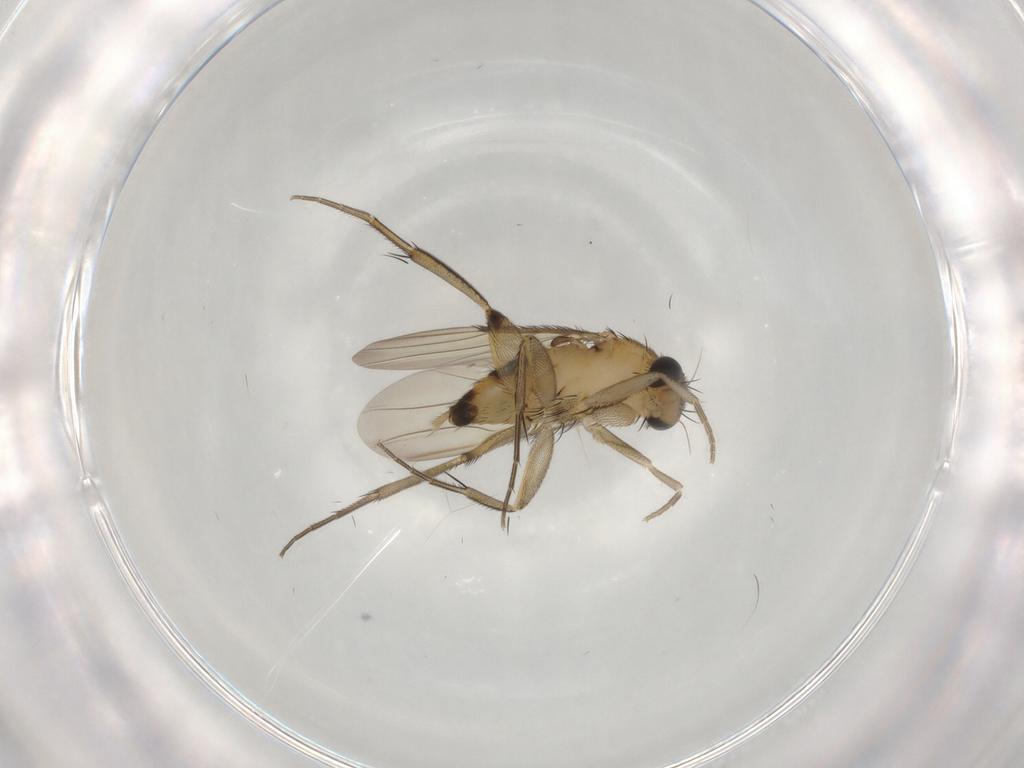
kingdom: Animalia
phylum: Arthropoda
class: Insecta
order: Diptera
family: Phoridae
